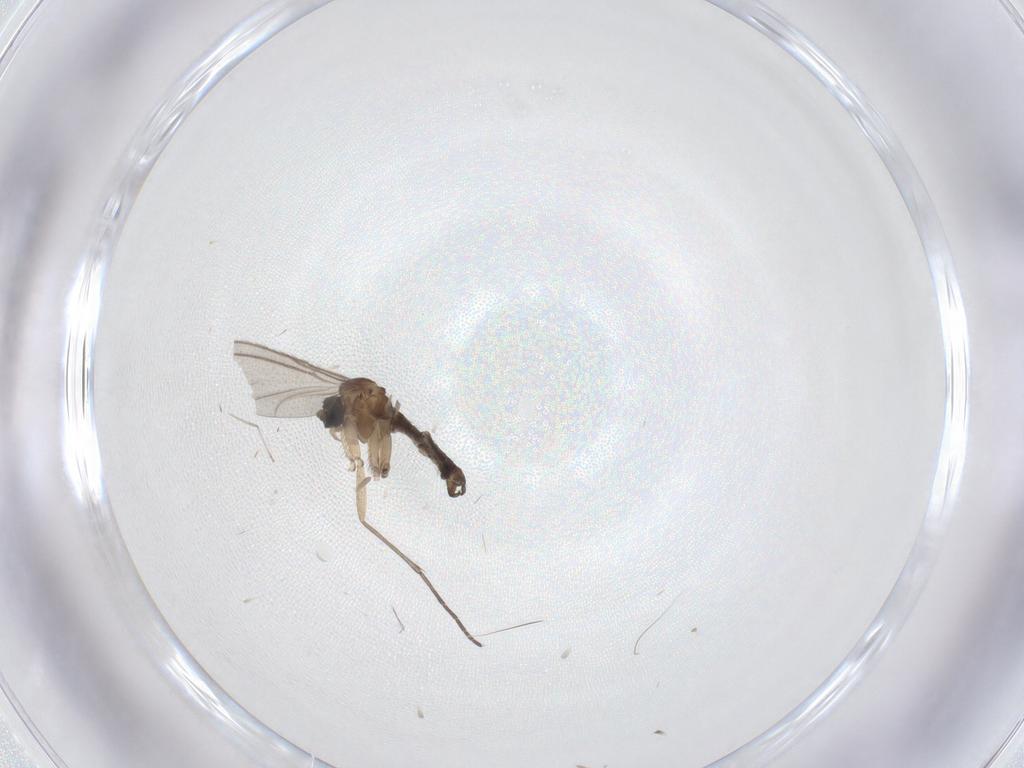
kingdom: Animalia
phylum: Arthropoda
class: Insecta
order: Diptera
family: Sciaridae
